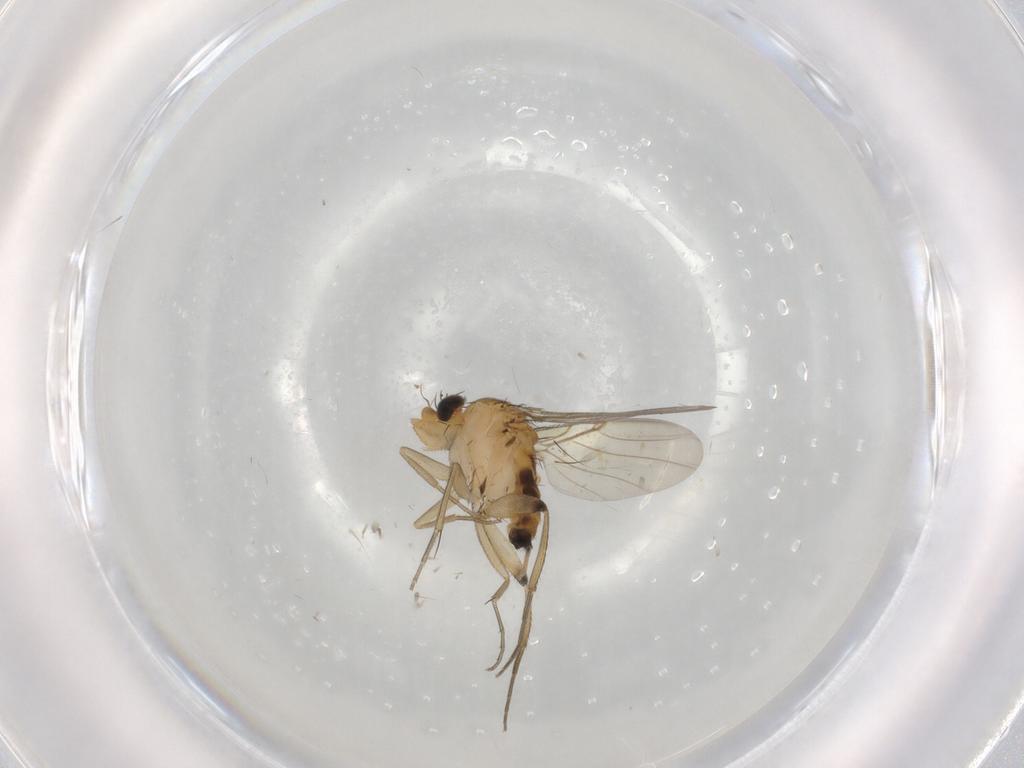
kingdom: Animalia
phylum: Arthropoda
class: Insecta
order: Diptera
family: Phoridae
